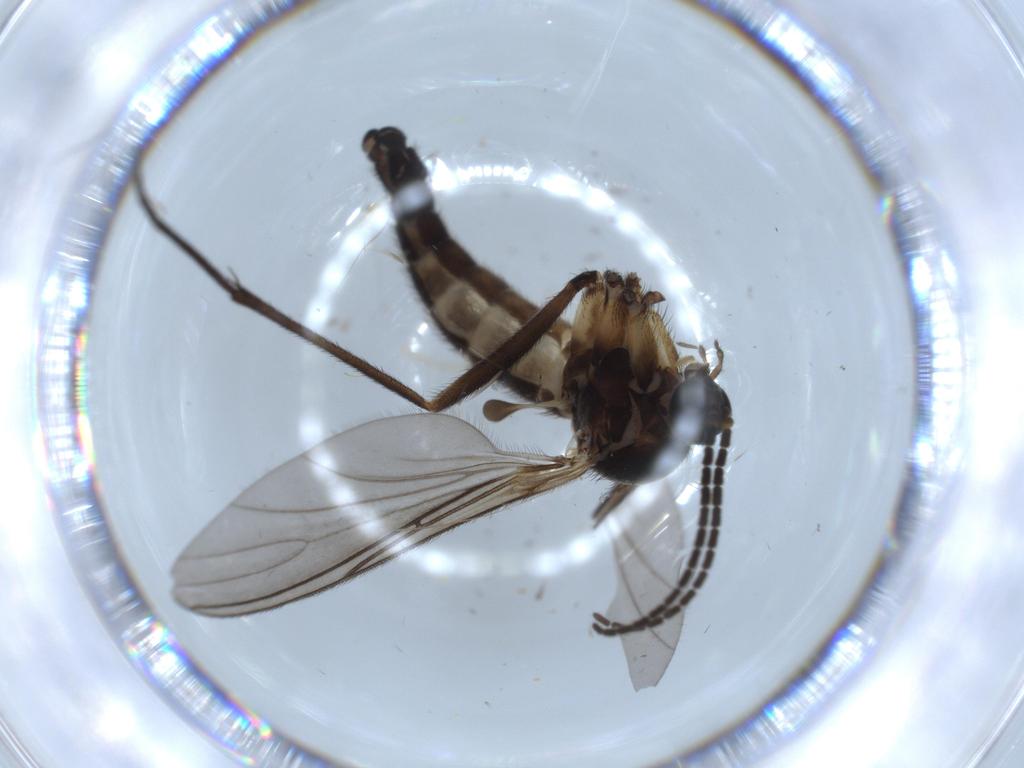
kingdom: Animalia
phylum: Arthropoda
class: Insecta
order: Diptera
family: Sciaridae
